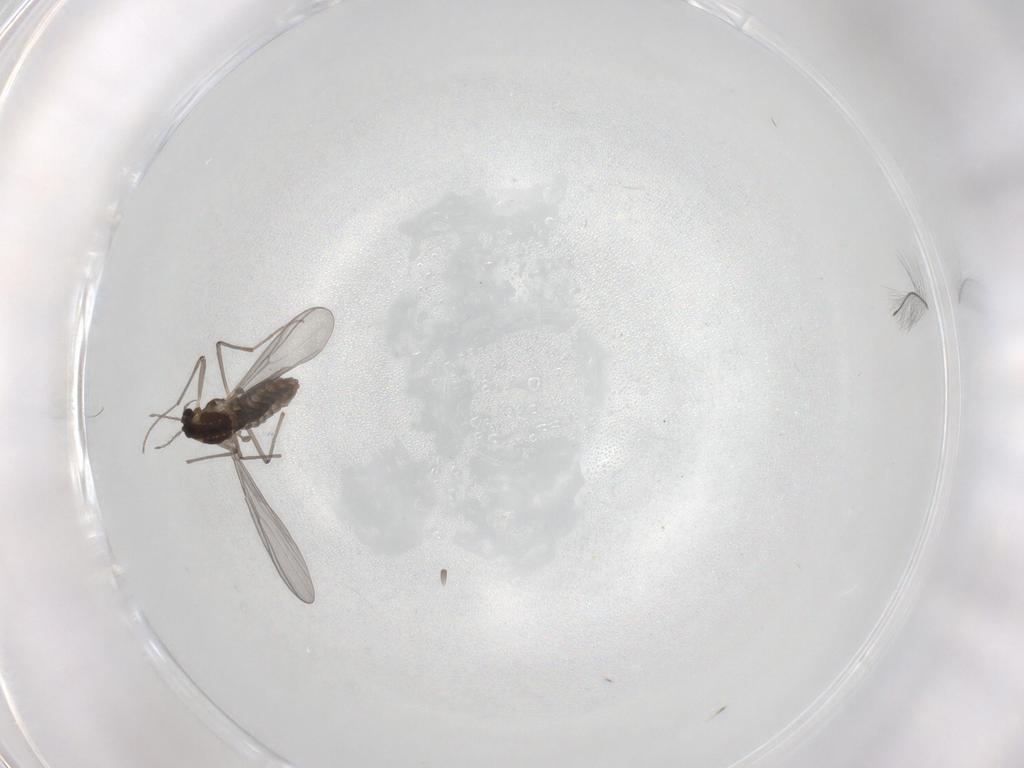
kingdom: Animalia
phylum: Arthropoda
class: Insecta
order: Diptera
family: Chironomidae
